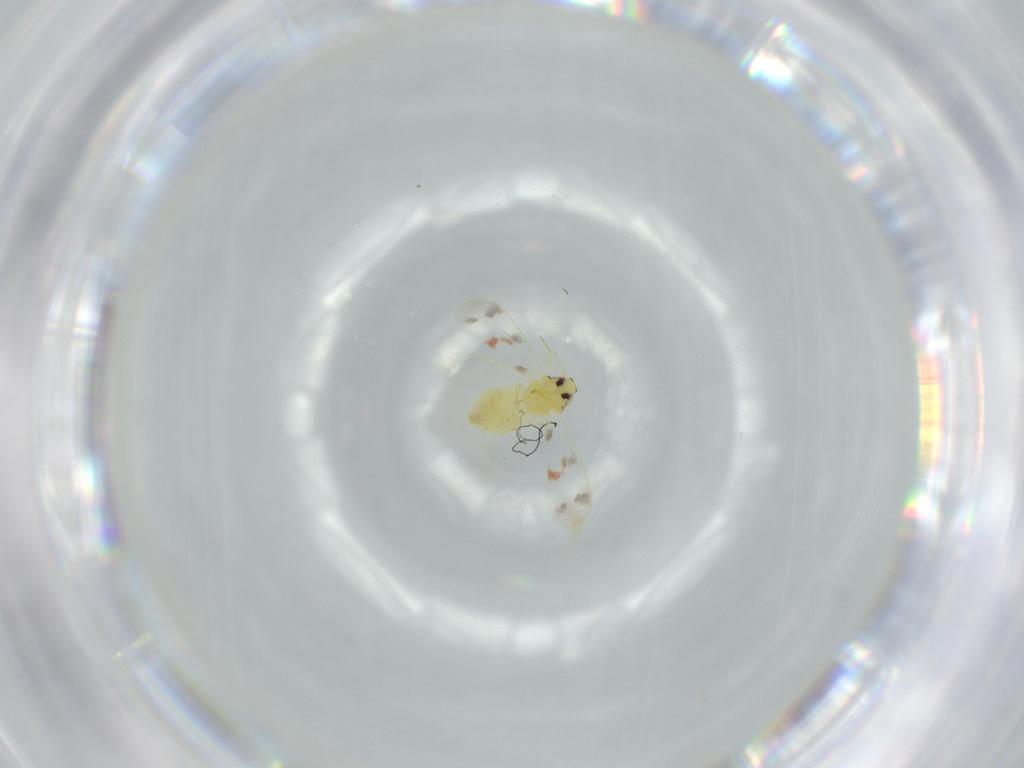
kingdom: Animalia
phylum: Arthropoda
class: Insecta
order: Hemiptera
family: Aleyrodidae
